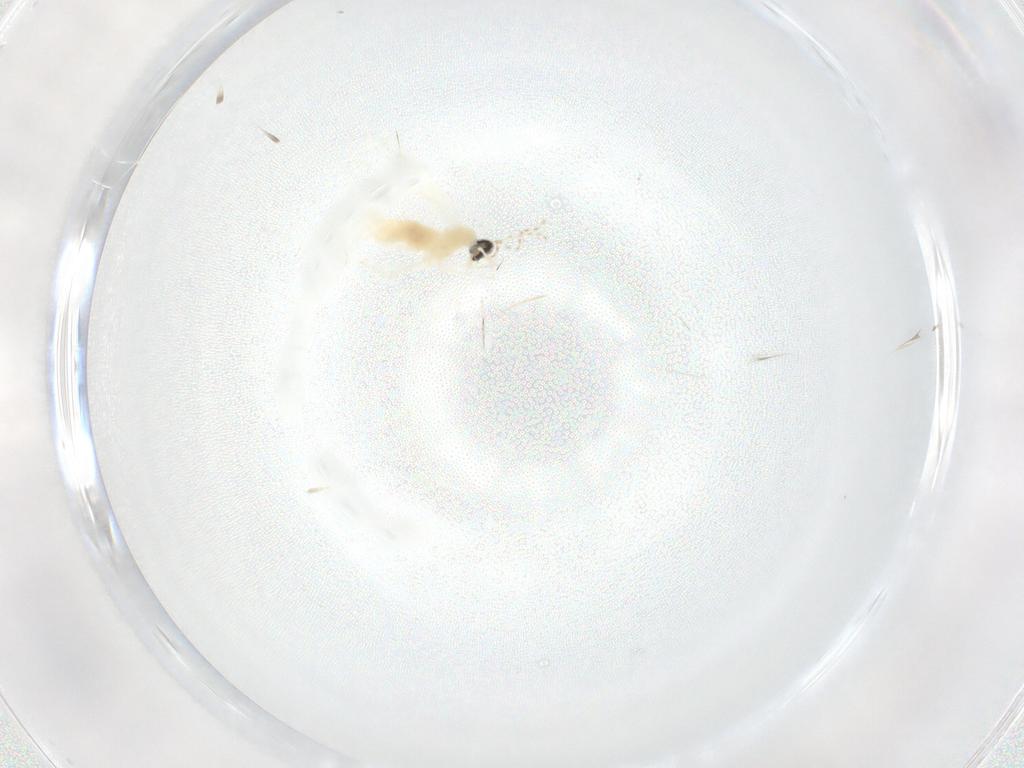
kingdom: Animalia
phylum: Arthropoda
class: Insecta
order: Diptera
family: Cecidomyiidae
